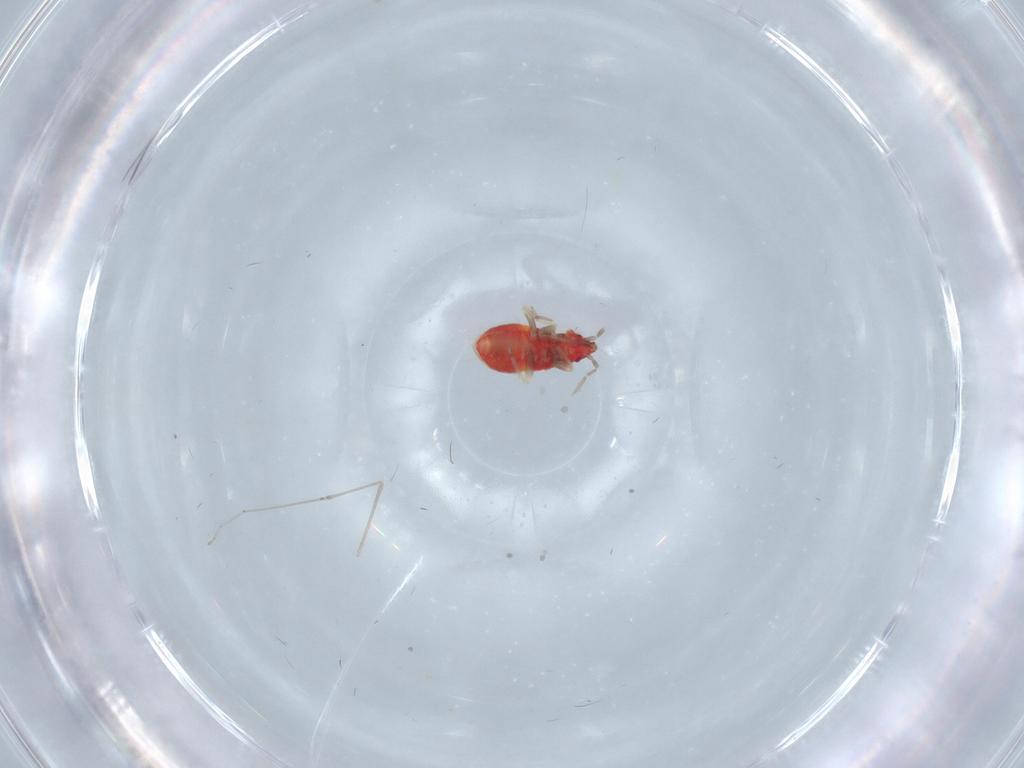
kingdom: Animalia
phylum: Arthropoda
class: Insecta
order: Hemiptera
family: Anthocoridae
